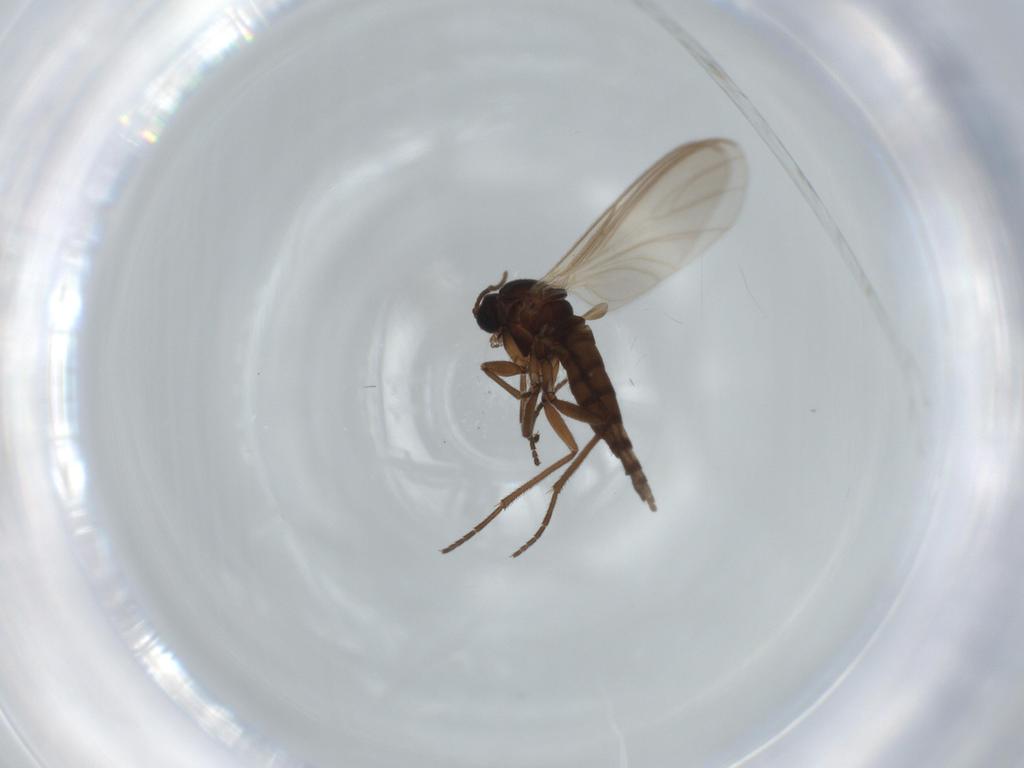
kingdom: Animalia
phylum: Arthropoda
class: Insecta
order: Diptera
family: Sciaridae
